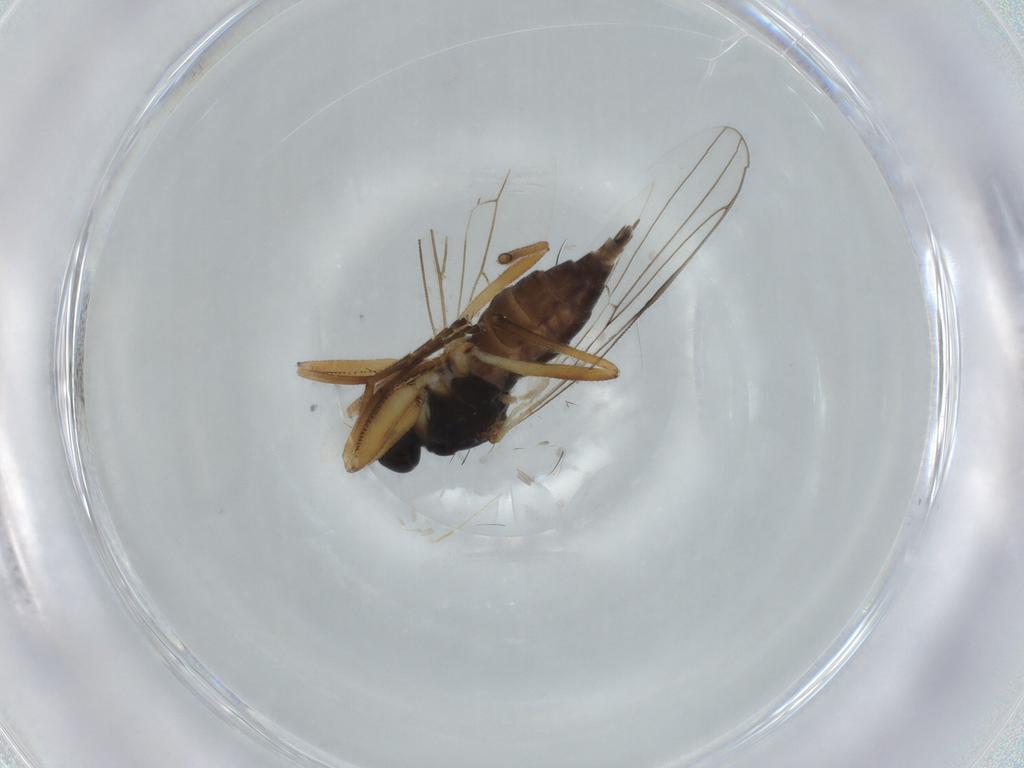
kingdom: Animalia
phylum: Arthropoda
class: Insecta
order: Diptera
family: Hybotidae
